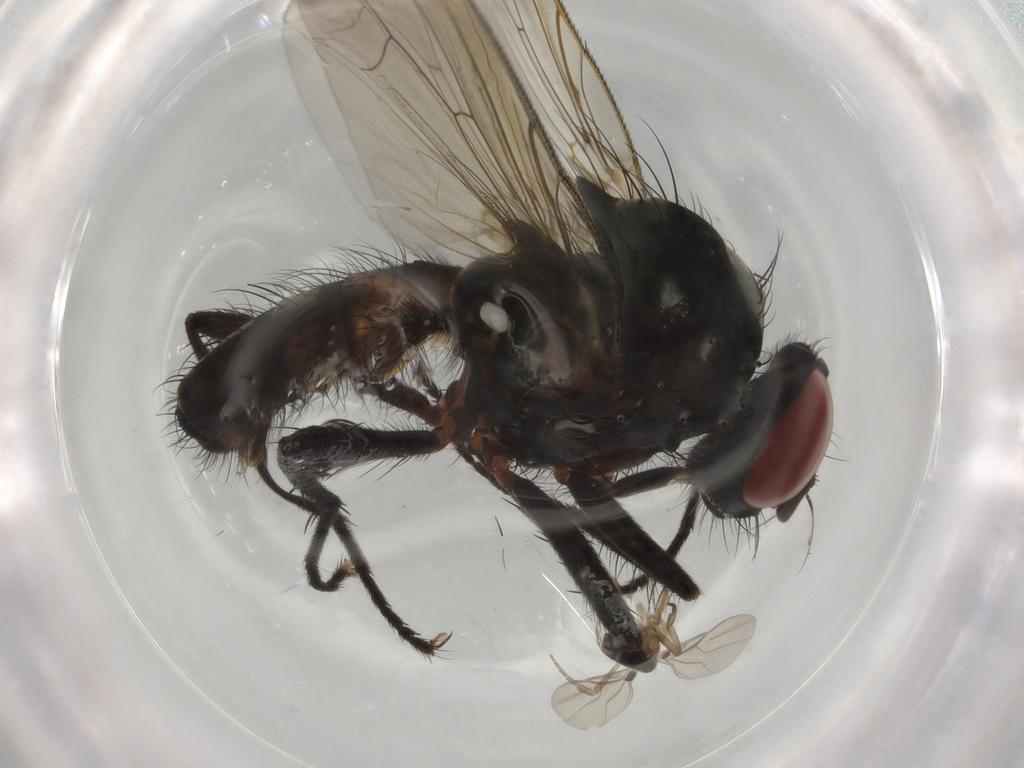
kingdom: Animalia
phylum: Arthropoda
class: Insecta
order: Diptera
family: Anthomyiidae
